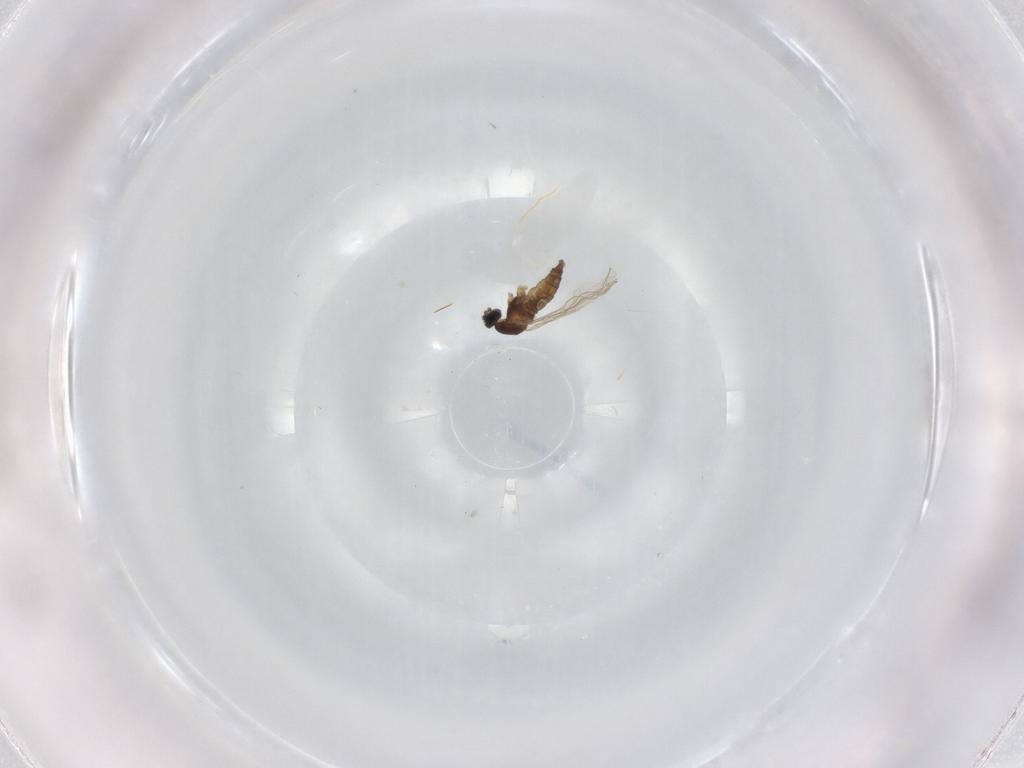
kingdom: Animalia
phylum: Arthropoda
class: Insecta
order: Diptera
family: Cecidomyiidae
